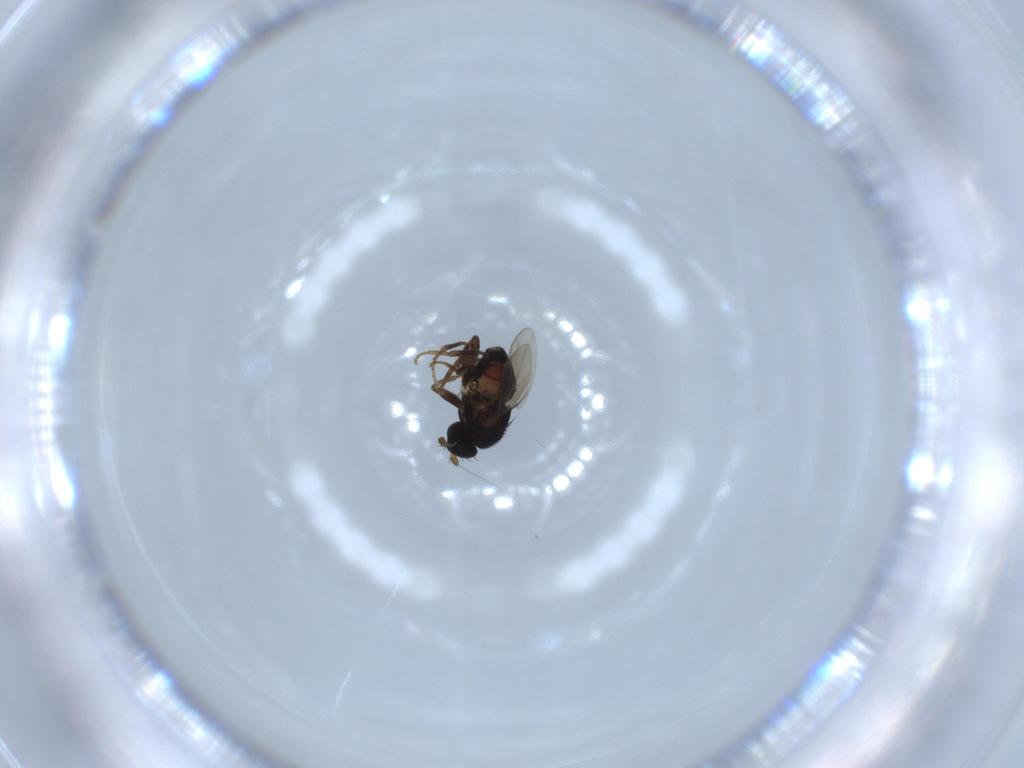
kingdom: Animalia
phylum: Arthropoda
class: Insecta
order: Diptera
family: Sphaeroceridae
